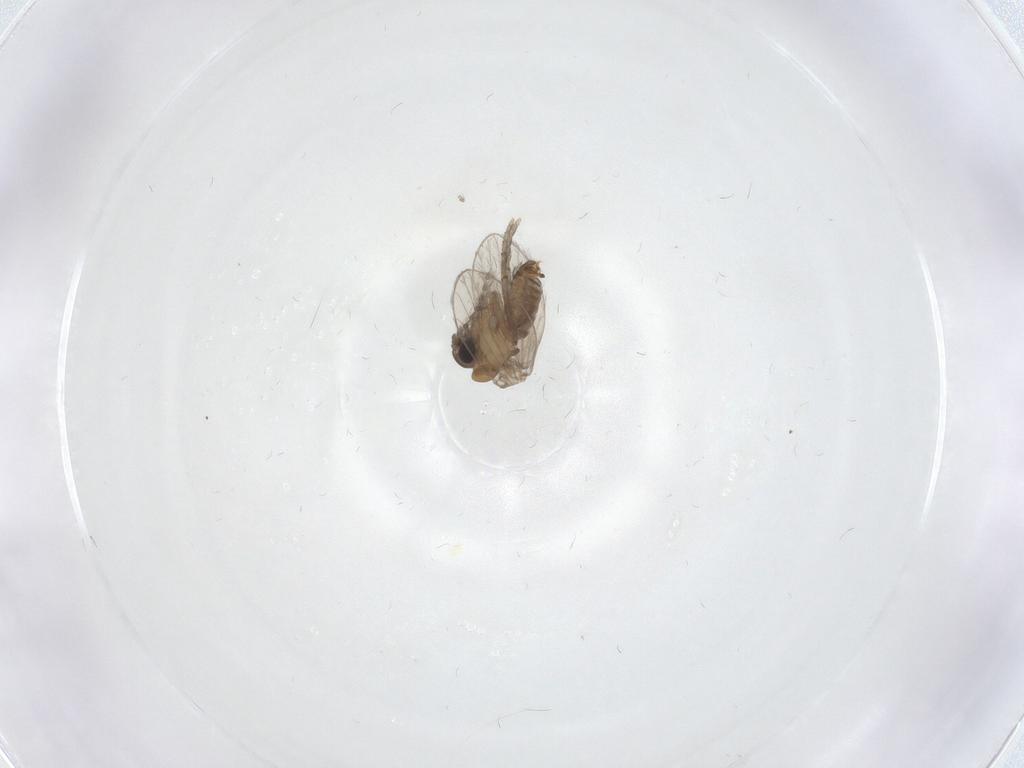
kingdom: Animalia
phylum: Arthropoda
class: Insecta
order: Diptera
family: Psychodidae
